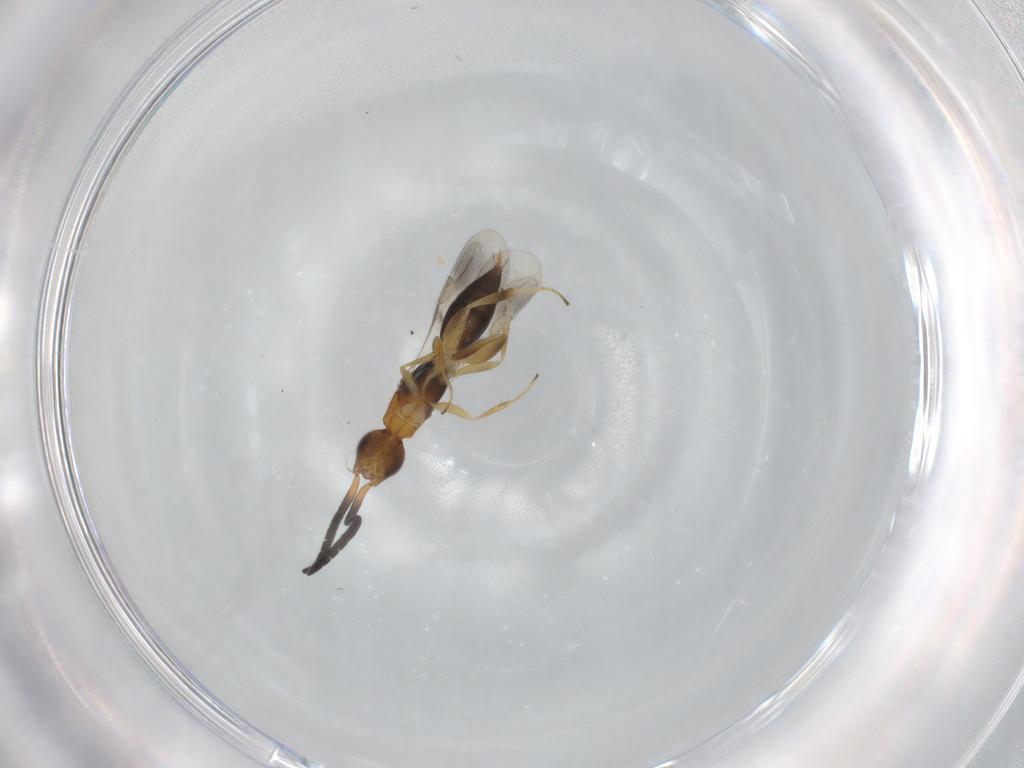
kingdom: Animalia
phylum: Arthropoda
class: Insecta
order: Hymenoptera
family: Megaspilidae
